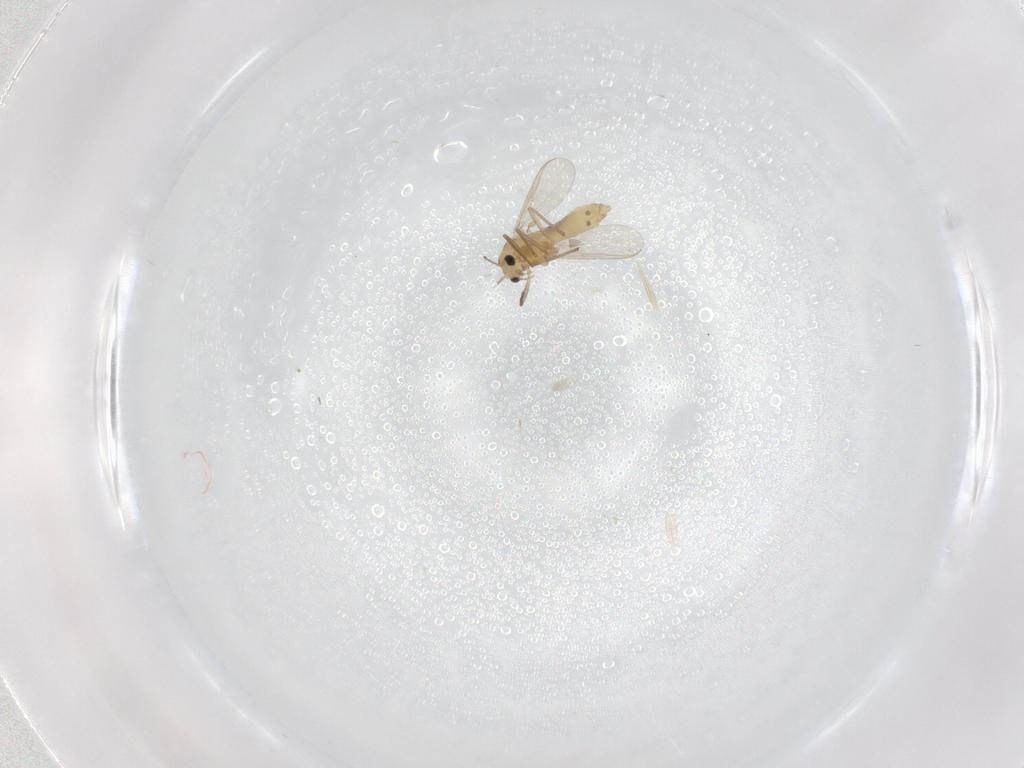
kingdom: Animalia
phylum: Arthropoda
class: Insecta
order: Diptera
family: Chironomidae
